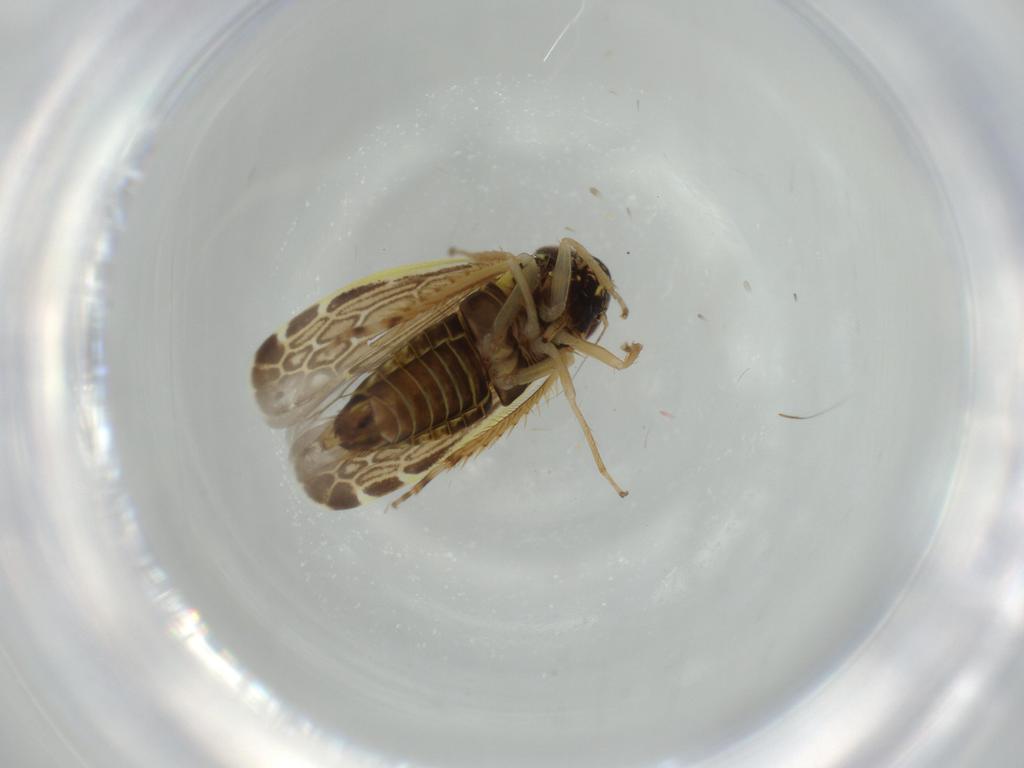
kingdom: Animalia
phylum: Arthropoda
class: Insecta
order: Hemiptera
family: Cicadellidae
